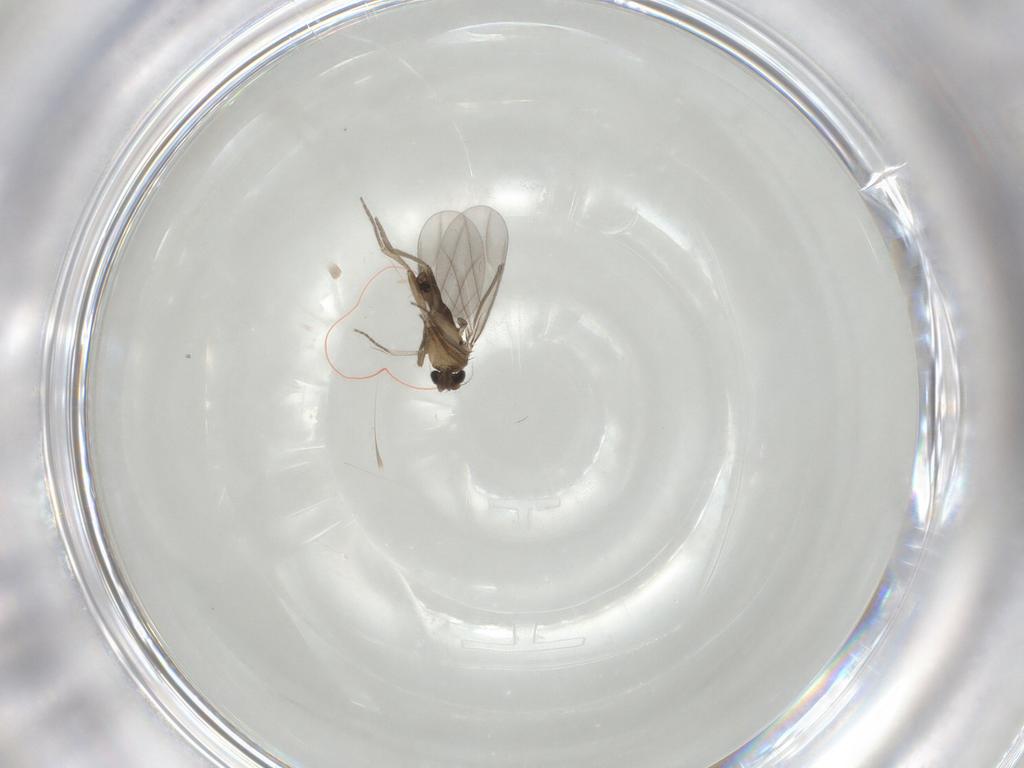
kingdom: Animalia
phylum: Arthropoda
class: Insecta
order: Diptera
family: Phoridae
